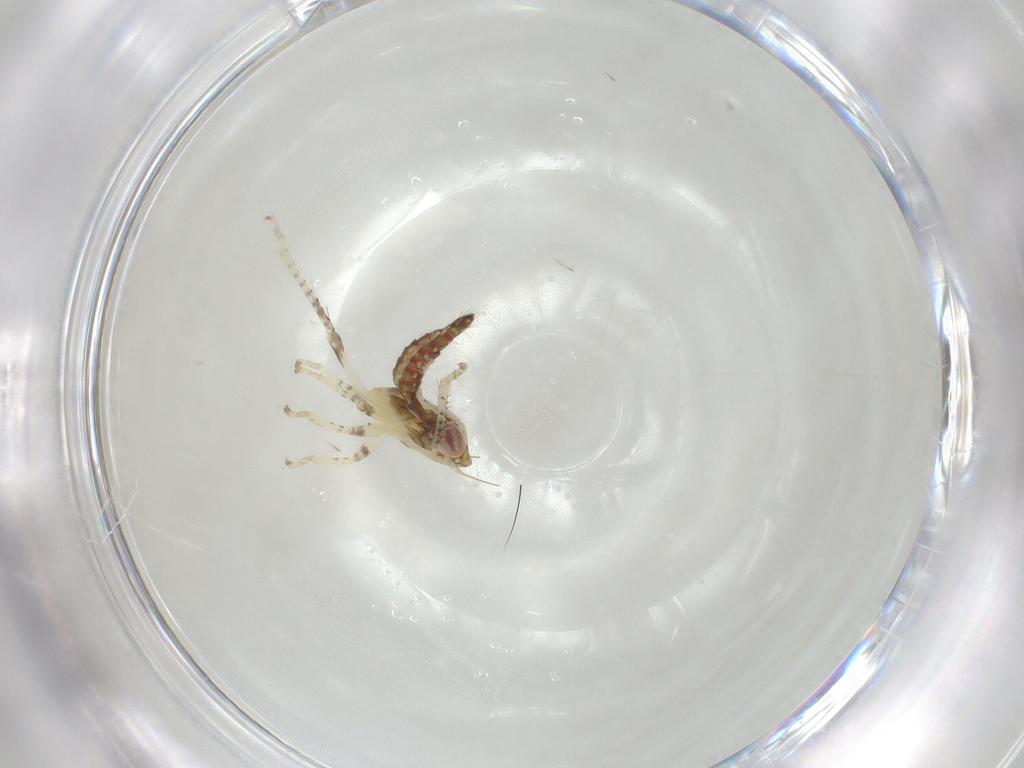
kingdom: Animalia
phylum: Arthropoda
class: Insecta
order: Hemiptera
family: Cicadellidae
